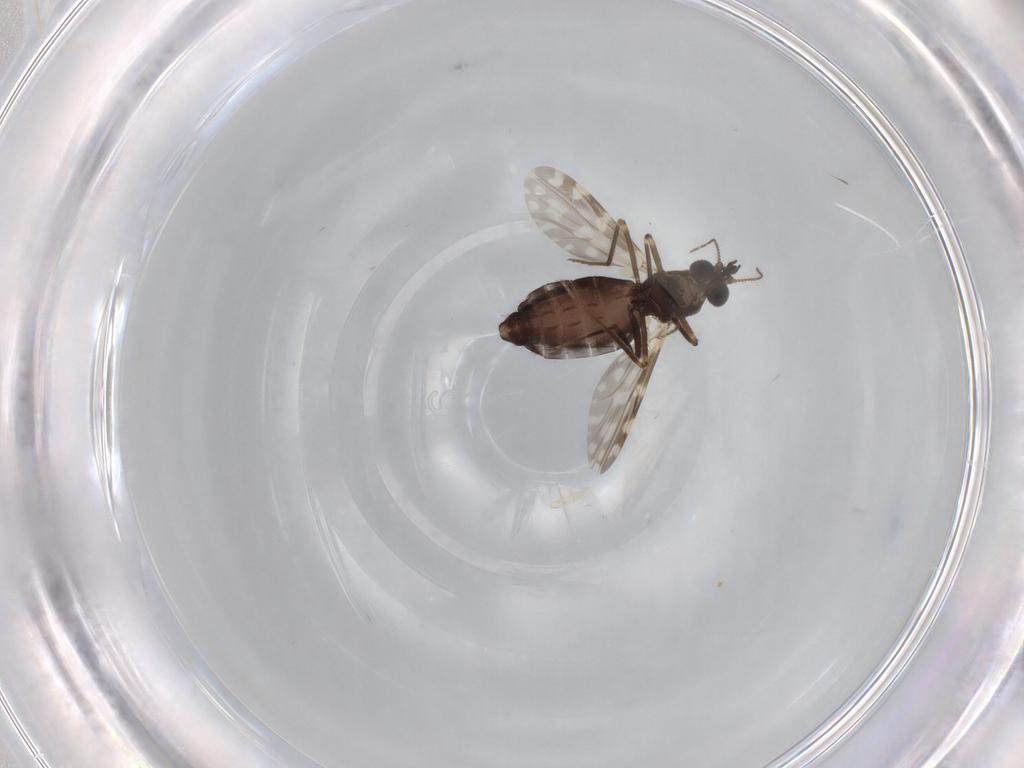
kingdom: Animalia
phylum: Arthropoda
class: Insecta
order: Diptera
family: Ceratopogonidae
